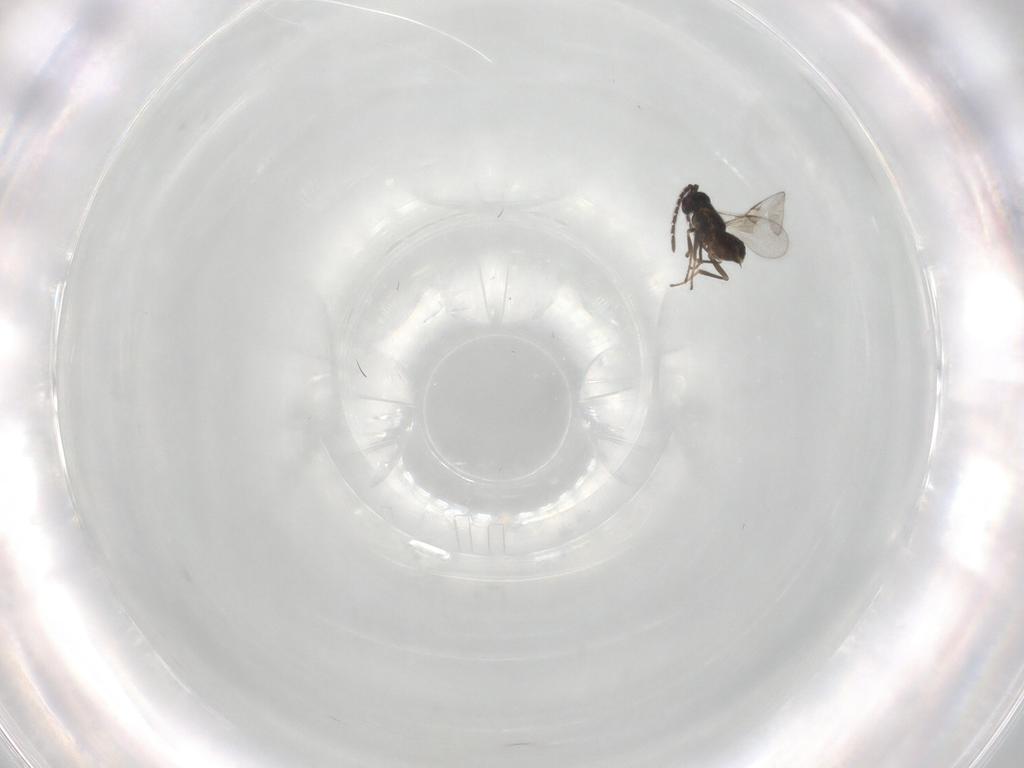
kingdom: Animalia
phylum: Arthropoda
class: Insecta
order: Hymenoptera
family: Encyrtidae
